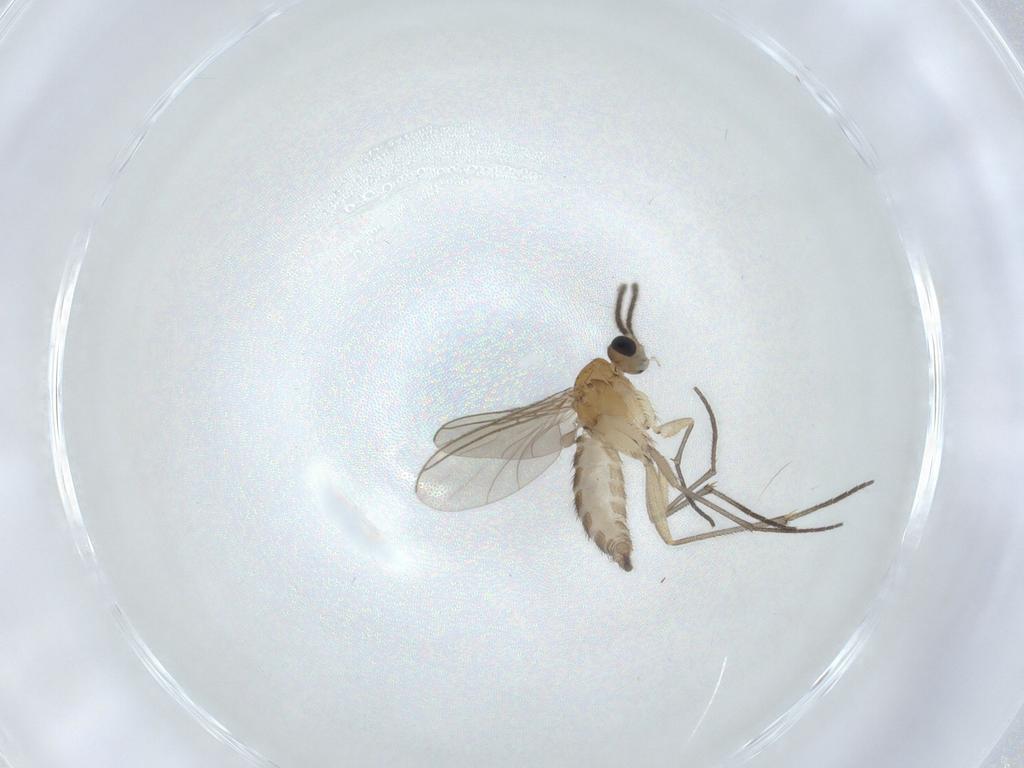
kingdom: Animalia
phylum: Arthropoda
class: Insecta
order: Diptera
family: Sciaridae
